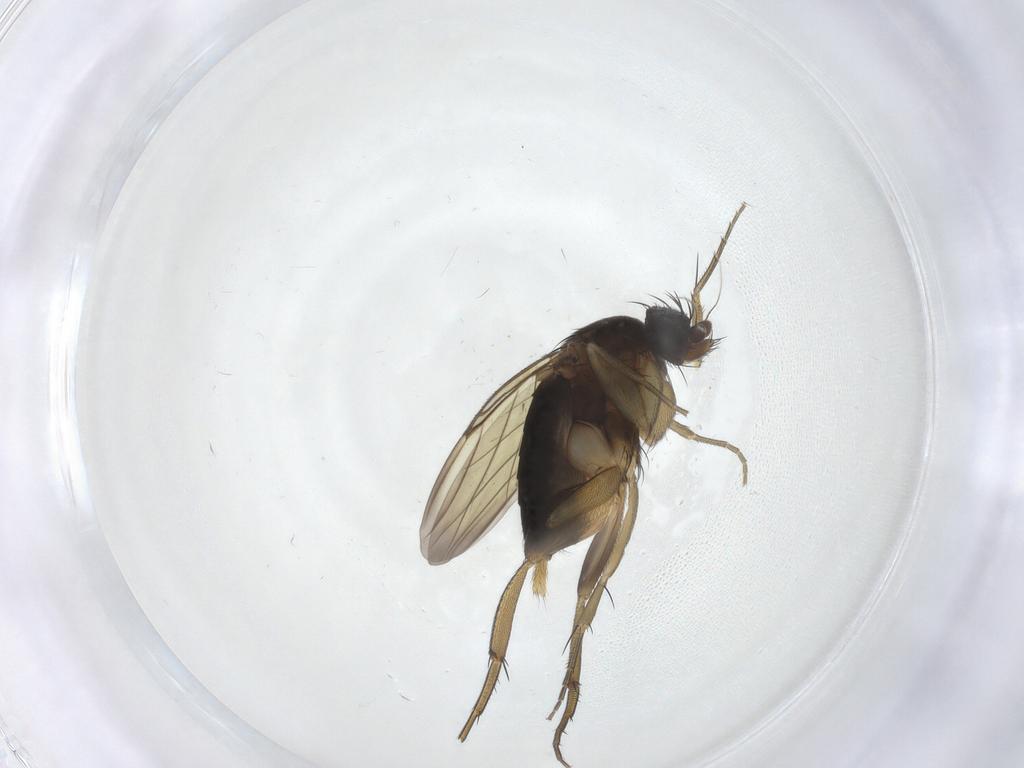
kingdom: Animalia
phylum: Arthropoda
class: Insecta
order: Diptera
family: Phoridae
